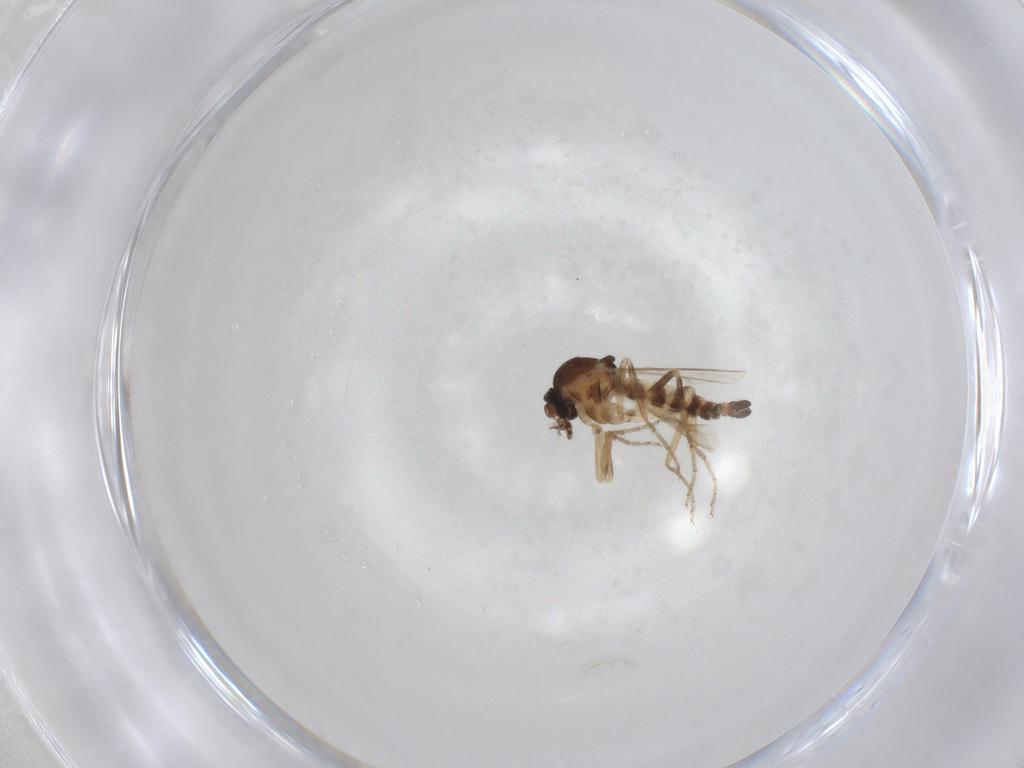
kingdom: Animalia
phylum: Arthropoda
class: Insecta
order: Diptera
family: Ceratopogonidae
